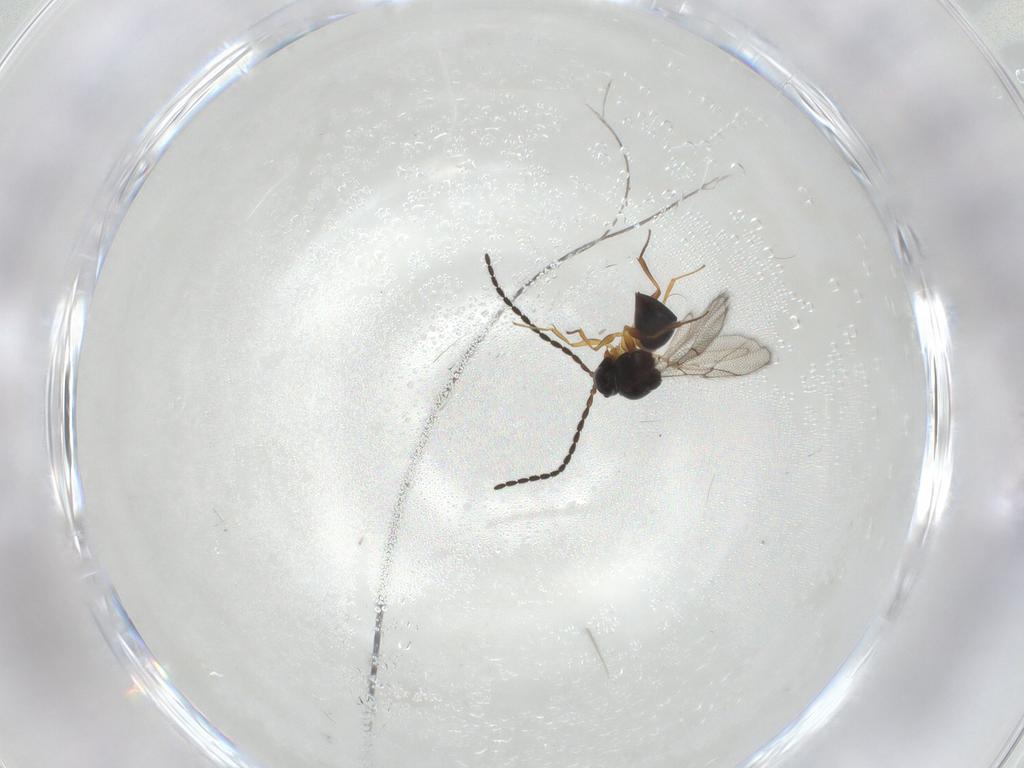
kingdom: Animalia
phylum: Arthropoda
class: Insecta
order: Hymenoptera
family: Figitidae
